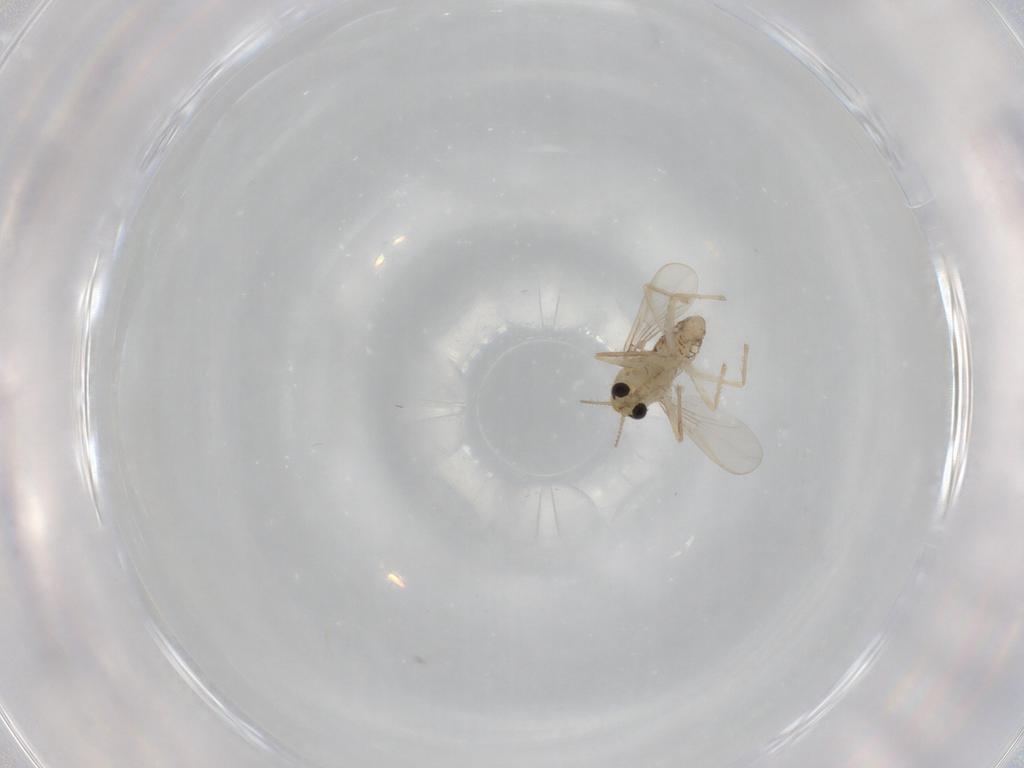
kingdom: Animalia
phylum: Arthropoda
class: Insecta
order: Diptera
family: Chironomidae
